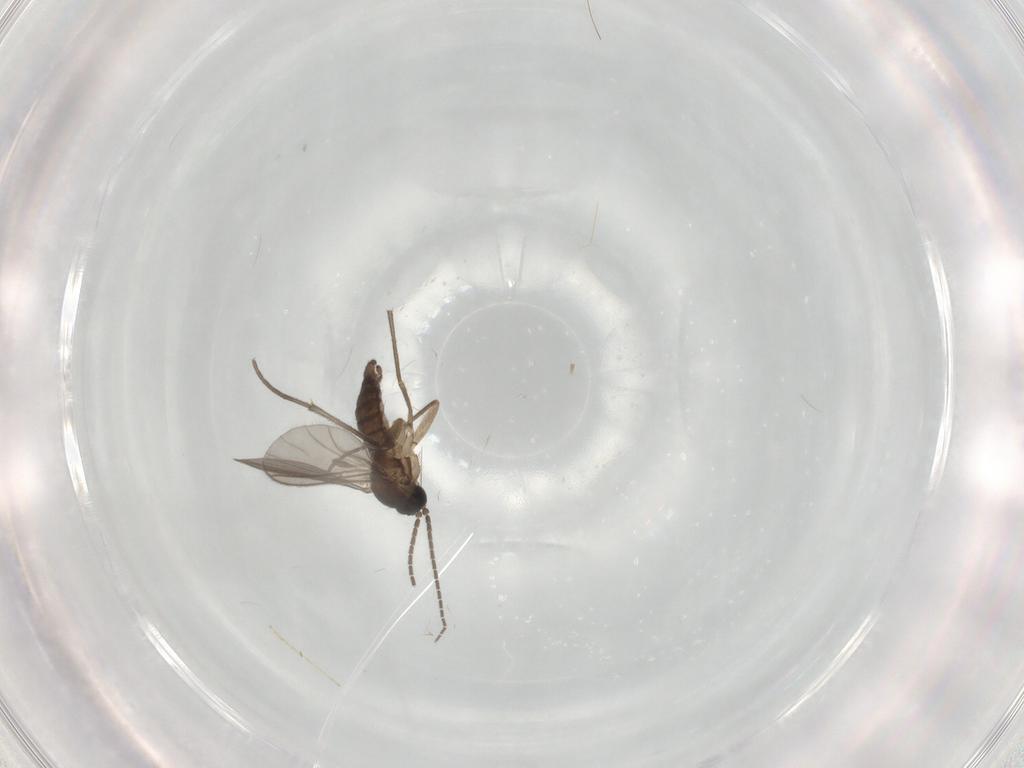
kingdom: Animalia
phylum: Arthropoda
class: Insecta
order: Diptera
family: Sciaridae
